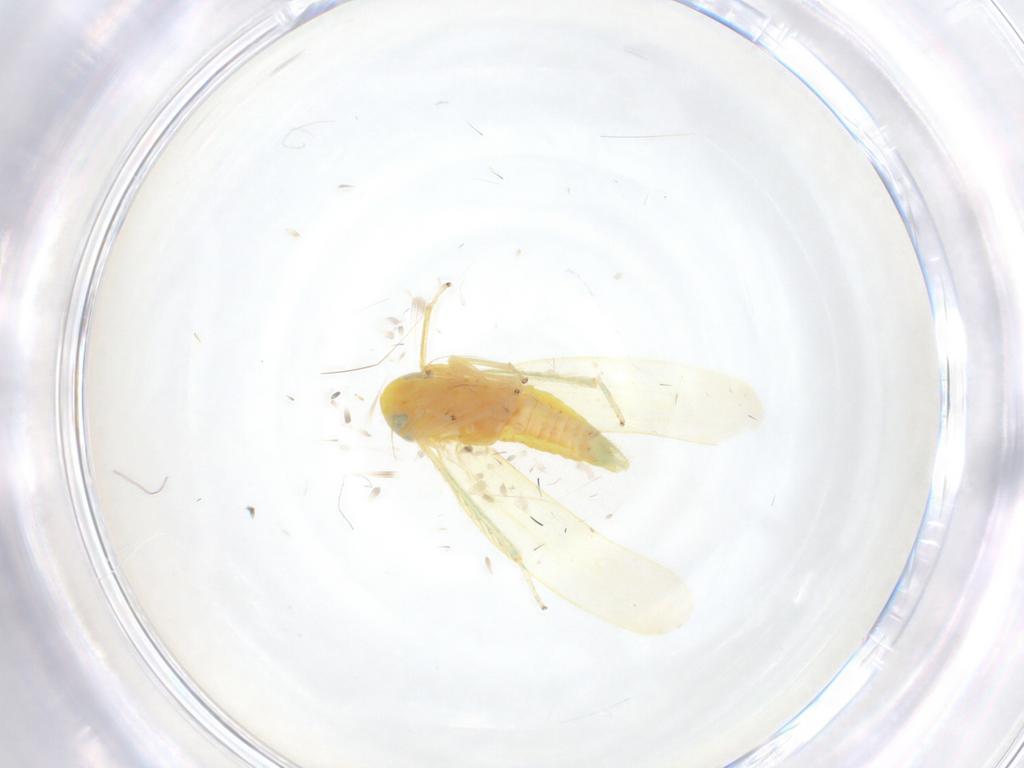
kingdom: Animalia
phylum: Arthropoda
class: Insecta
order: Hemiptera
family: Cicadellidae
